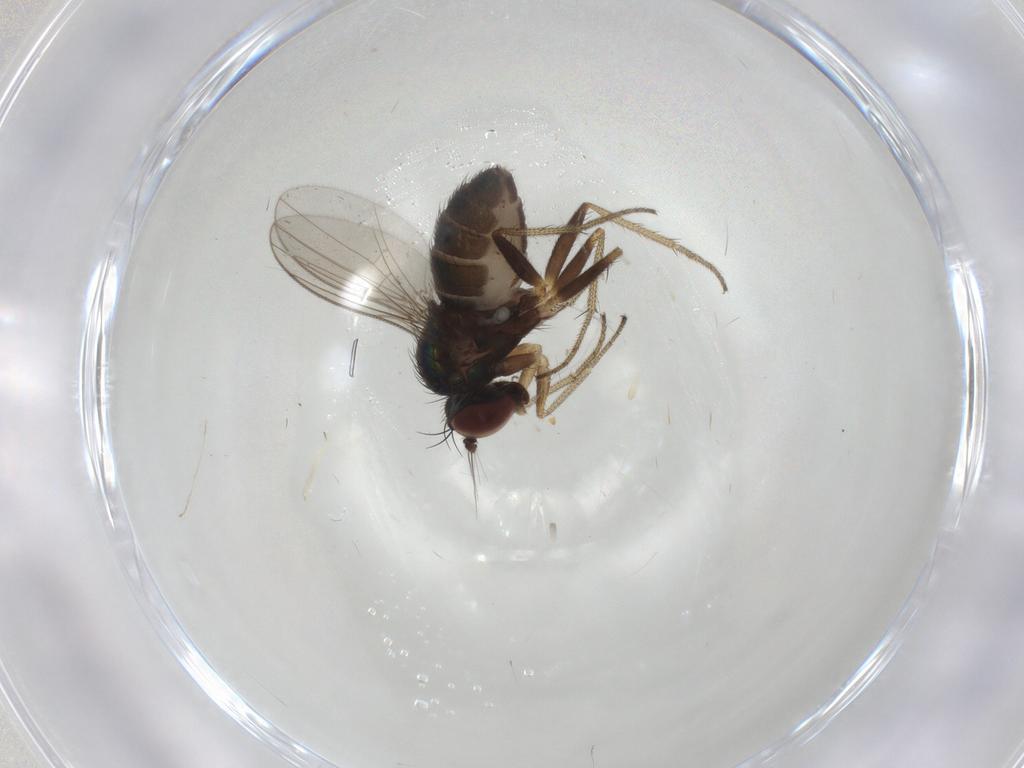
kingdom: Animalia
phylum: Arthropoda
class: Insecta
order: Diptera
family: Dolichopodidae
